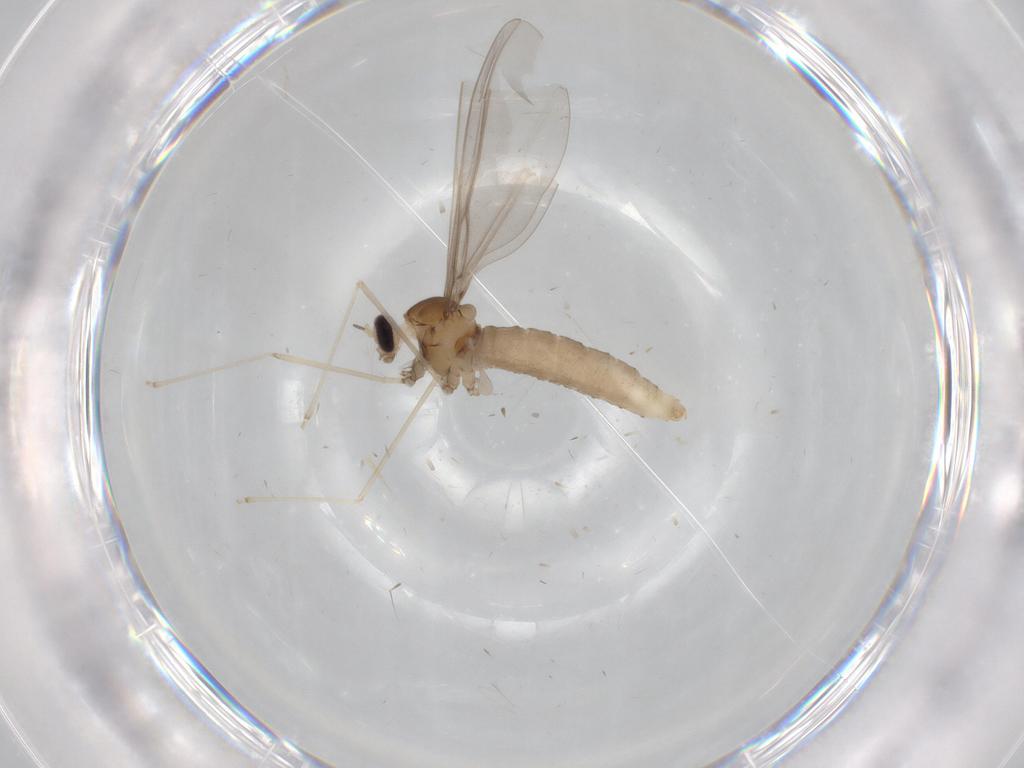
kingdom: Animalia
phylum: Arthropoda
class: Insecta
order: Diptera
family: Cecidomyiidae
